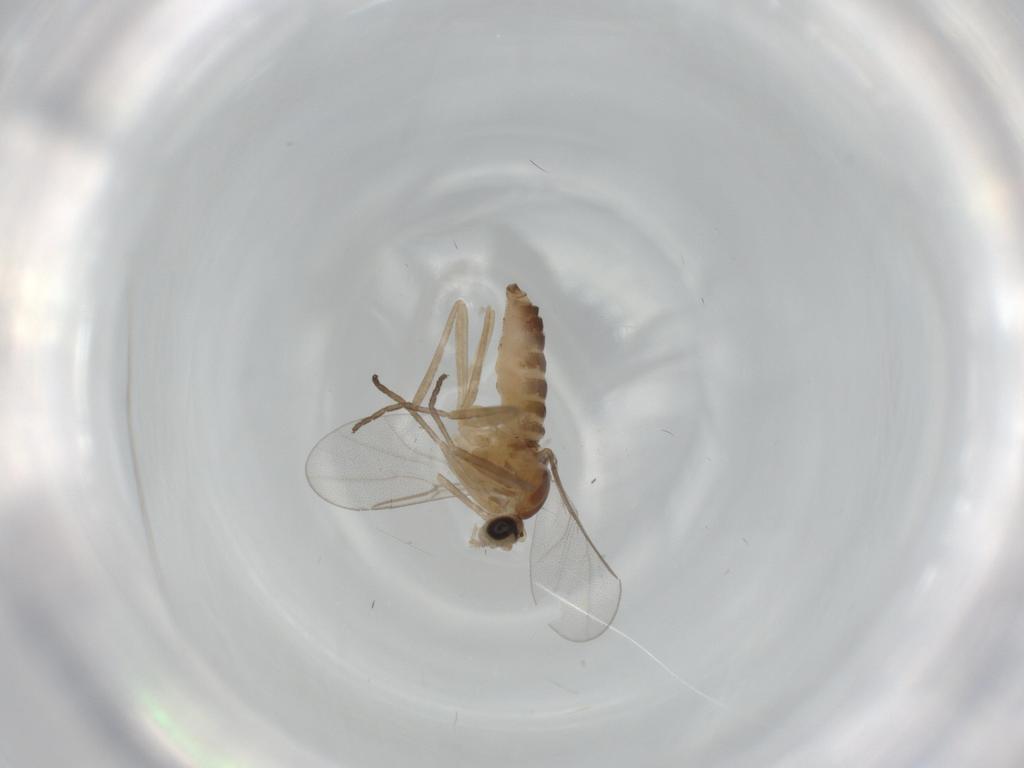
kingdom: Animalia
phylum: Arthropoda
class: Insecta
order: Diptera
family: Cecidomyiidae
